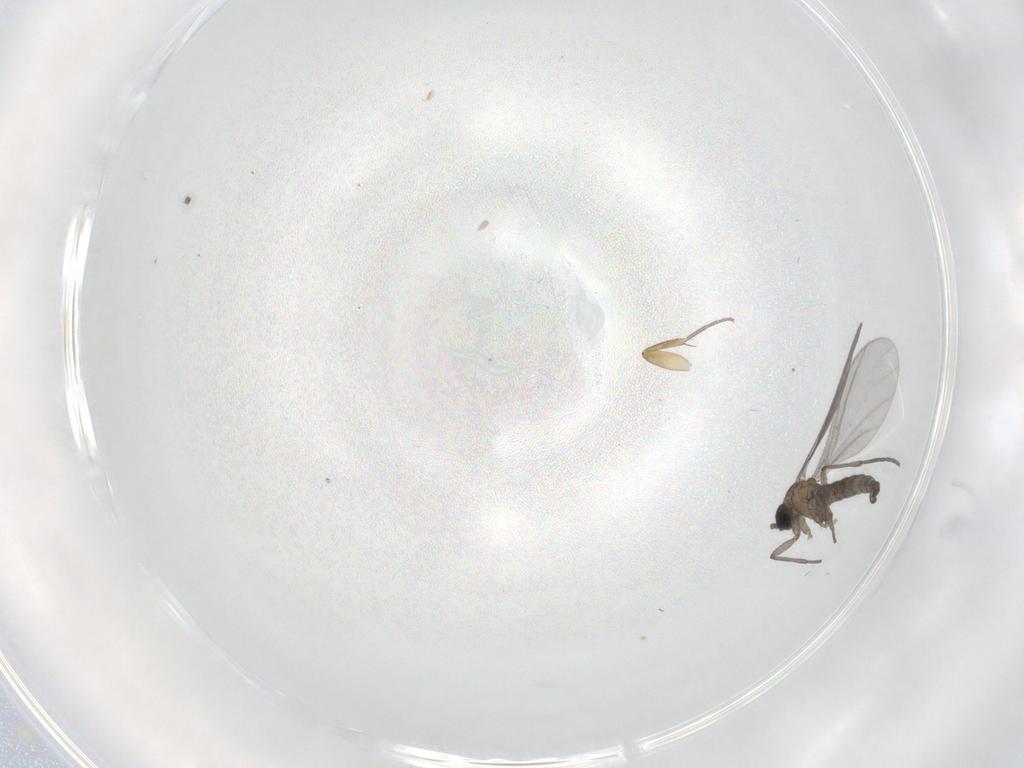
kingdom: Animalia
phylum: Arthropoda
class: Insecta
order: Diptera
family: Sciaridae
